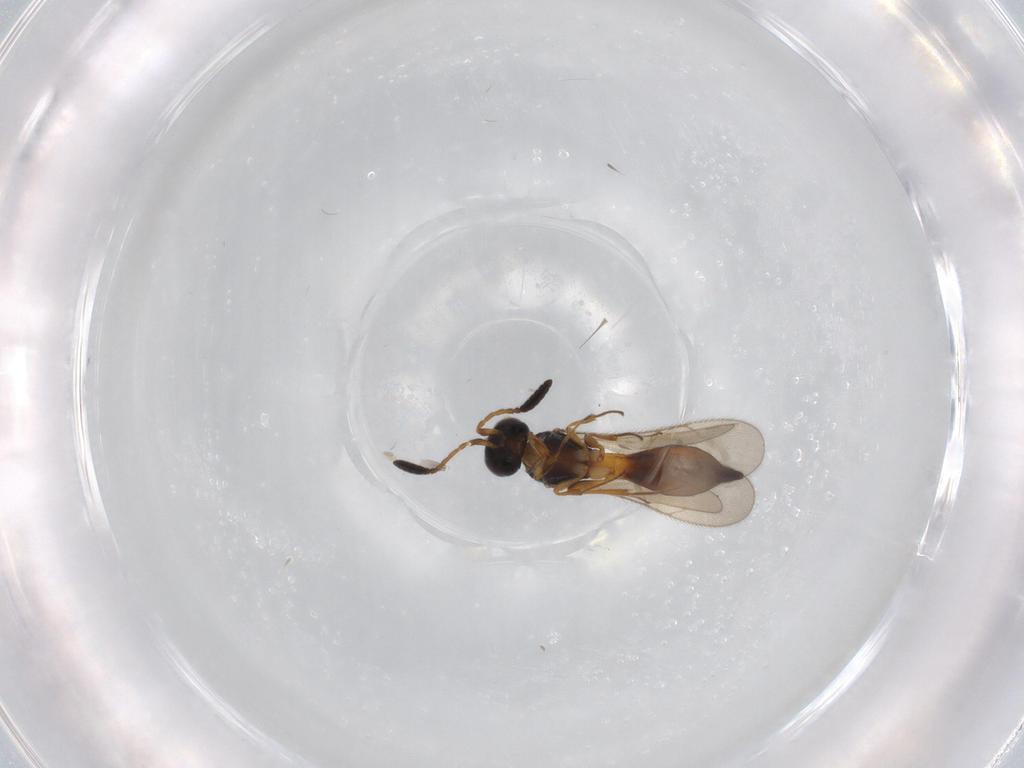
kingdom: Animalia
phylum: Arthropoda
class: Insecta
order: Hymenoptera
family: Scelionidae
